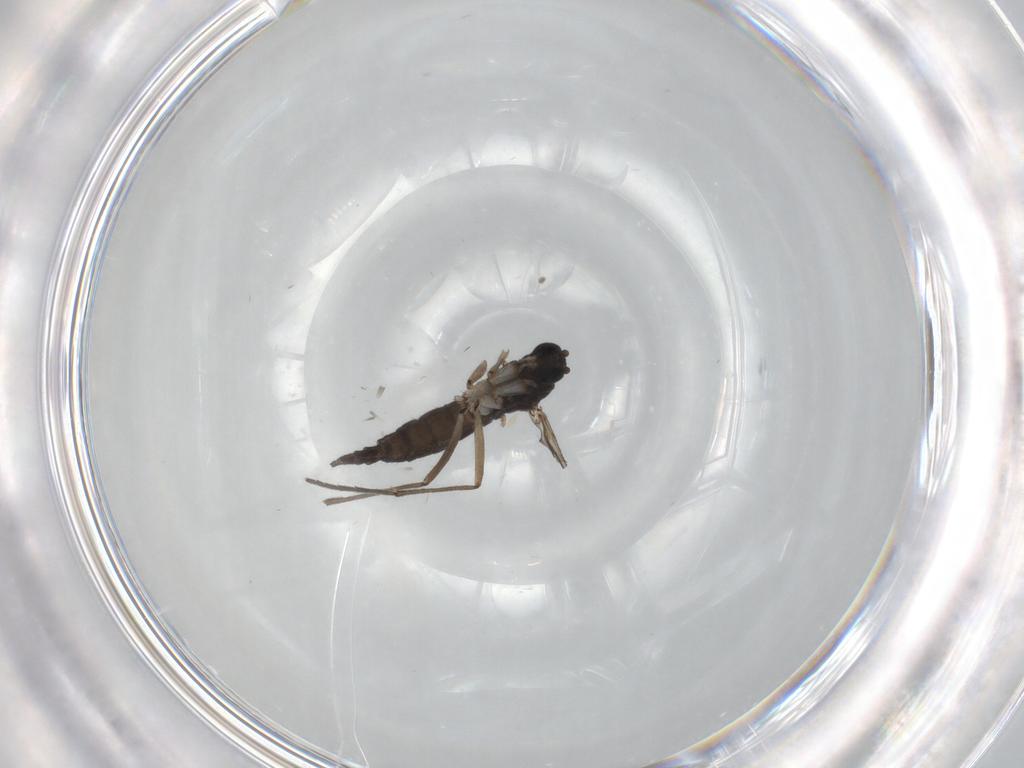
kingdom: Animalia
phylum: Arthropoda
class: Insecta
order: Diptera
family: Sciaridae
